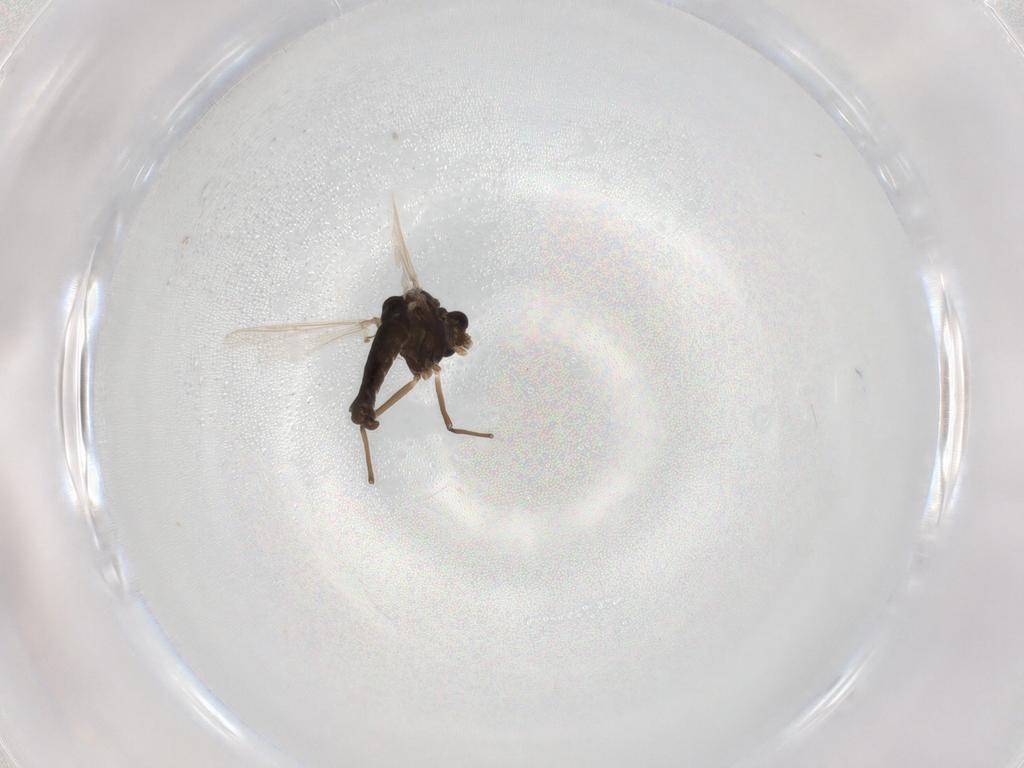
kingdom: Animalia
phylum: Arthropoda
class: Insecta
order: Diptera
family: Chironomidae
